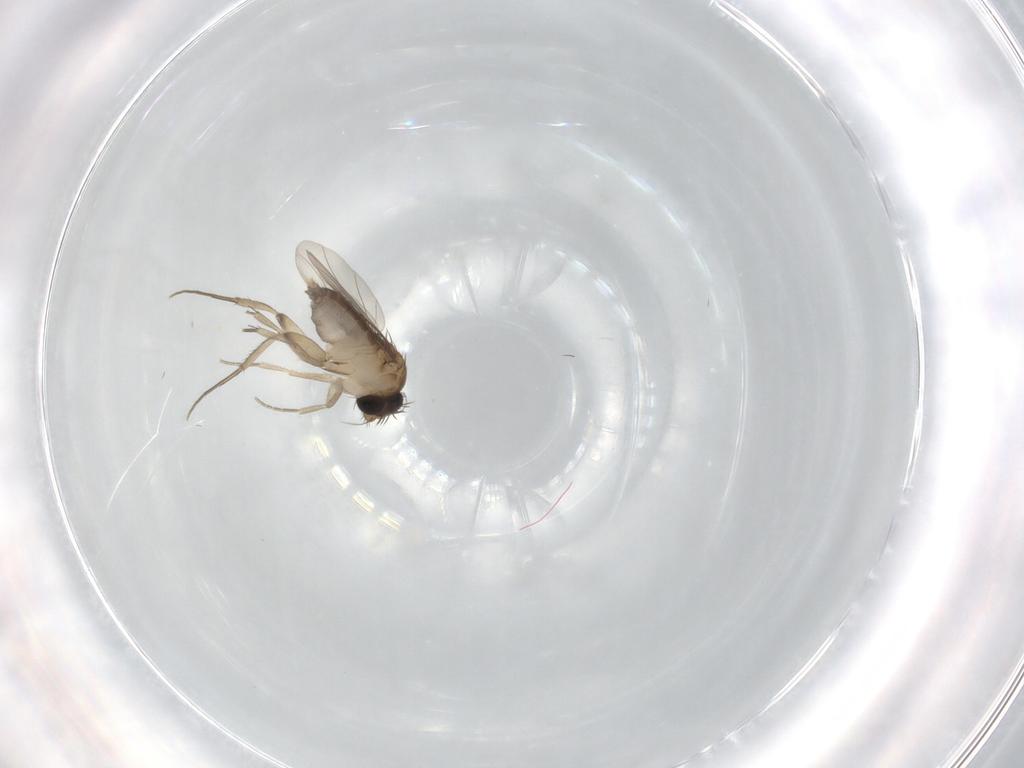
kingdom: Animalia
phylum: Arthropoda
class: Insecta
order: Diptera
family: Phoridae
